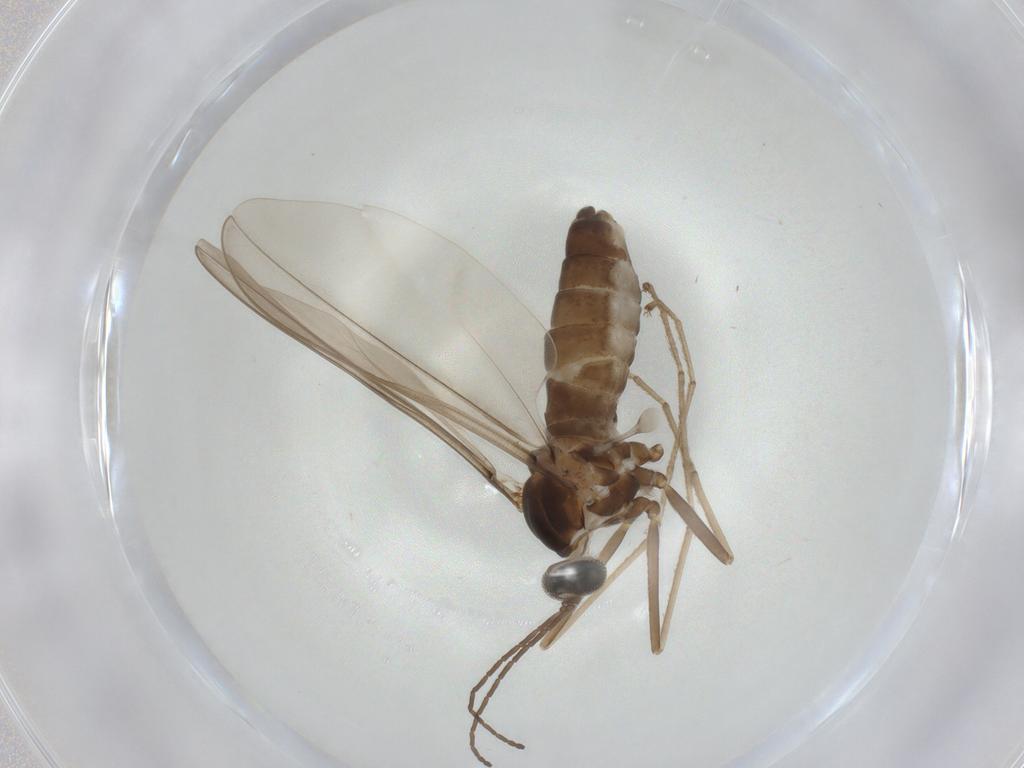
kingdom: Animalia
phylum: Arthropoda
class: Insecta
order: Diptera
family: Cecidomyiidae
